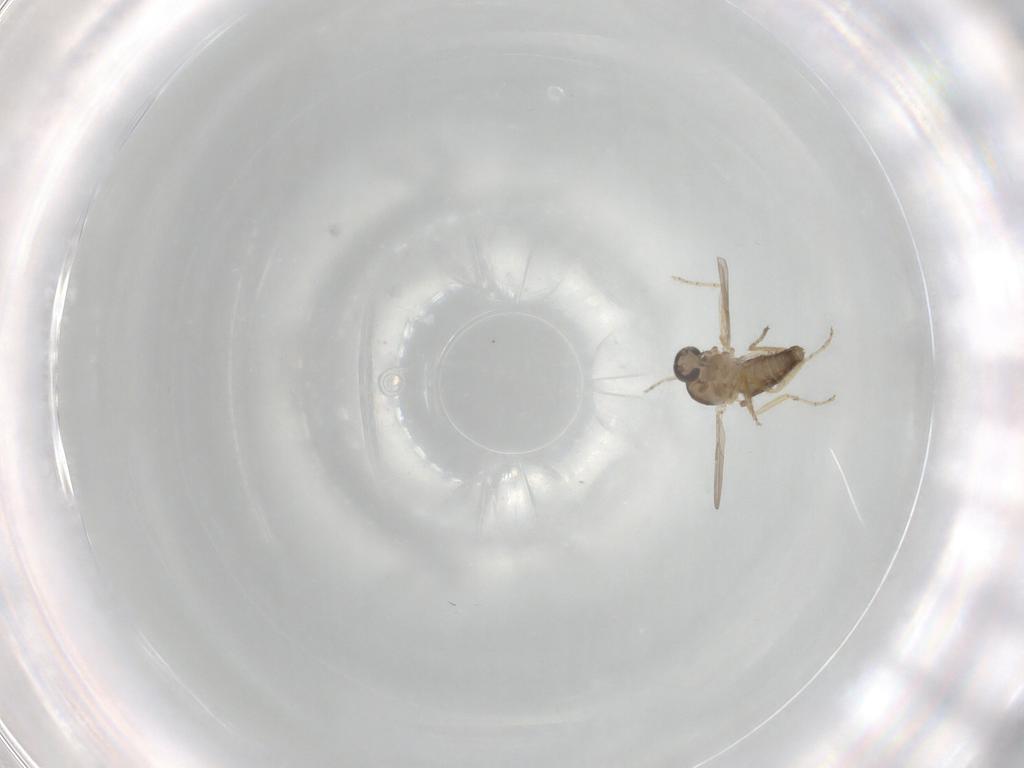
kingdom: Animalia
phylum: Arthropoda
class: Insecta
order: Diptera
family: Ceratopogonidae
